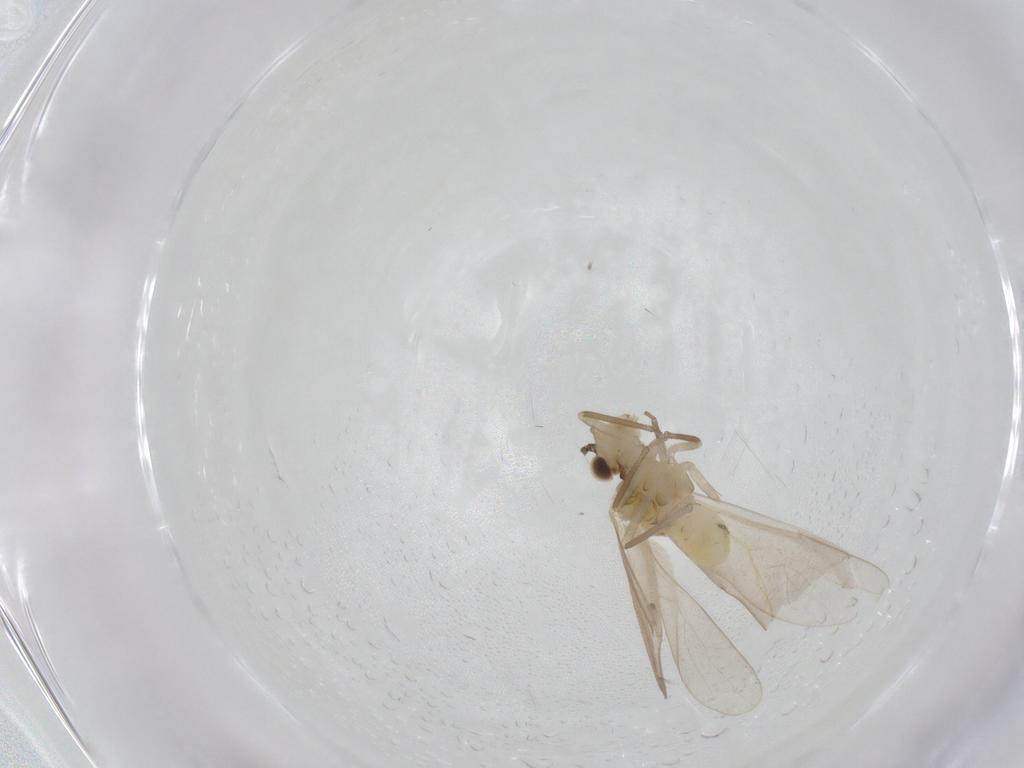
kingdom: Animalia
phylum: Arthropoda
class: Insecta
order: Psocodea
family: Caeciliusidae
